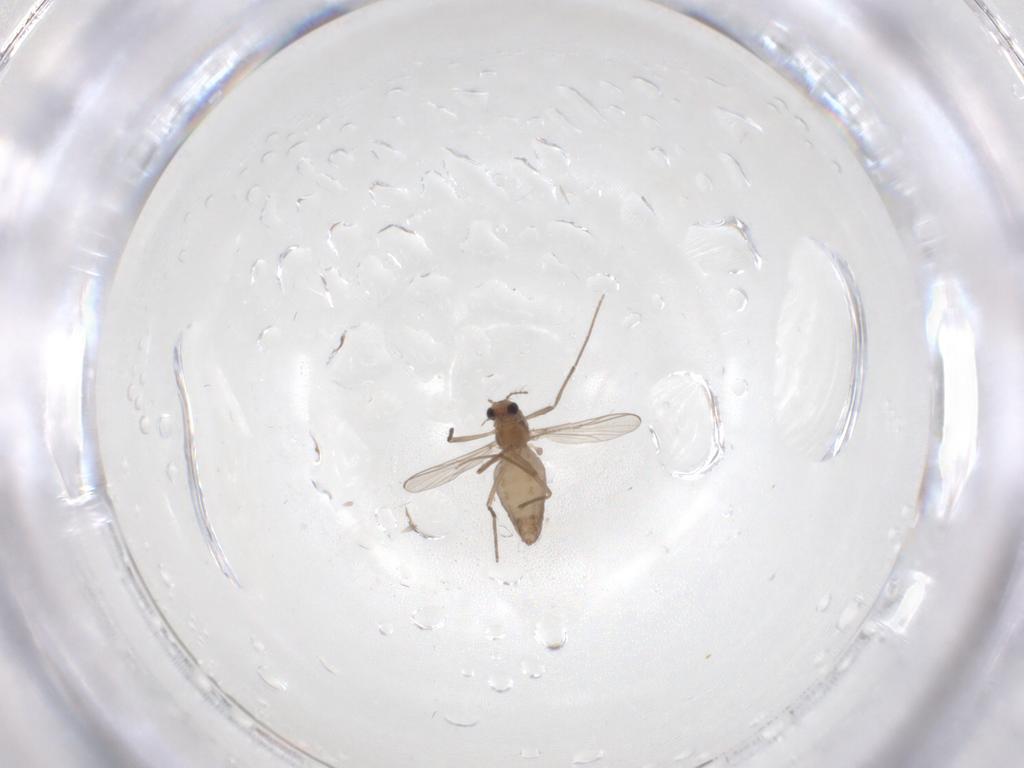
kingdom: Animalia
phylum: Arthropoda
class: Insecta
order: Diptera
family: Chironomidae
